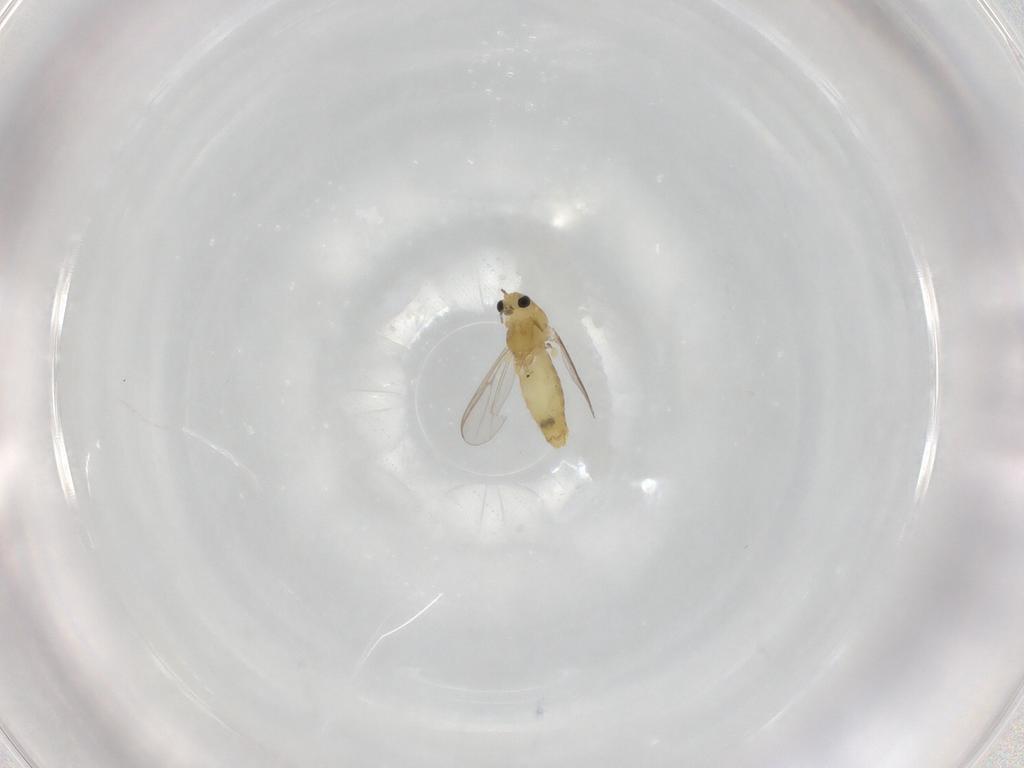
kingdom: Animalia
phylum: Arthropoda
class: Insecta
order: Diptera
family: Chironomidae
